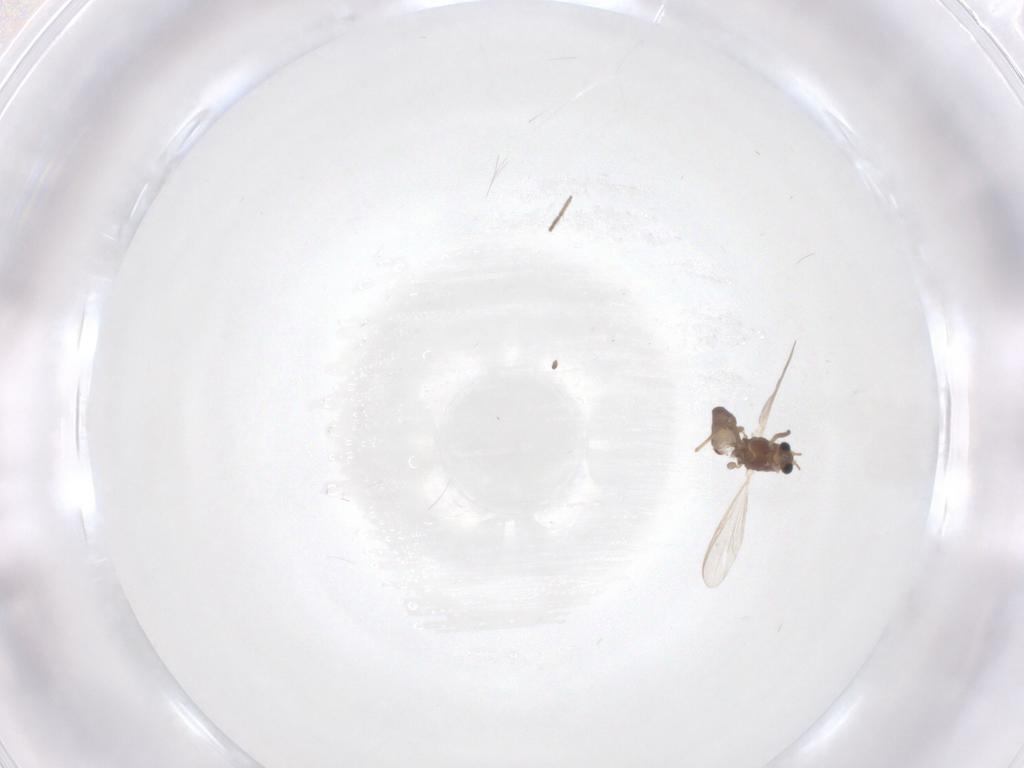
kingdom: Animalia
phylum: Arthropoda
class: Insecta
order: Diptera
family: Chironomidae
